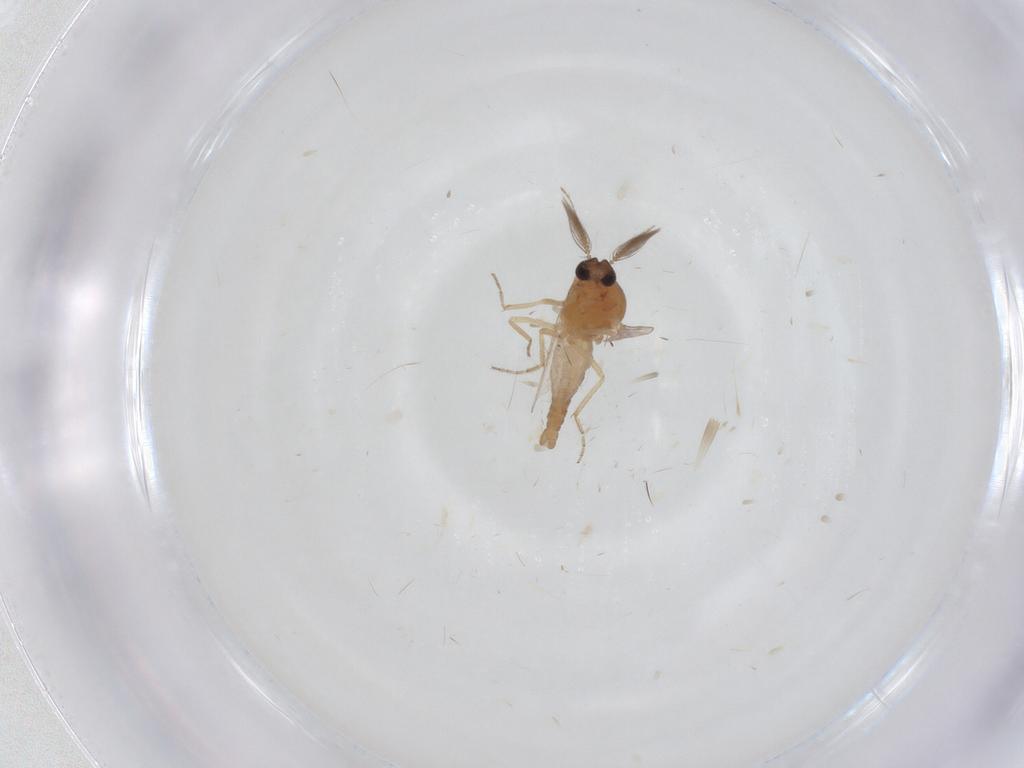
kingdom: Animalia
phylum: Arthropoda
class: Insecta
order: Diptera
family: Ceratopogonidae
